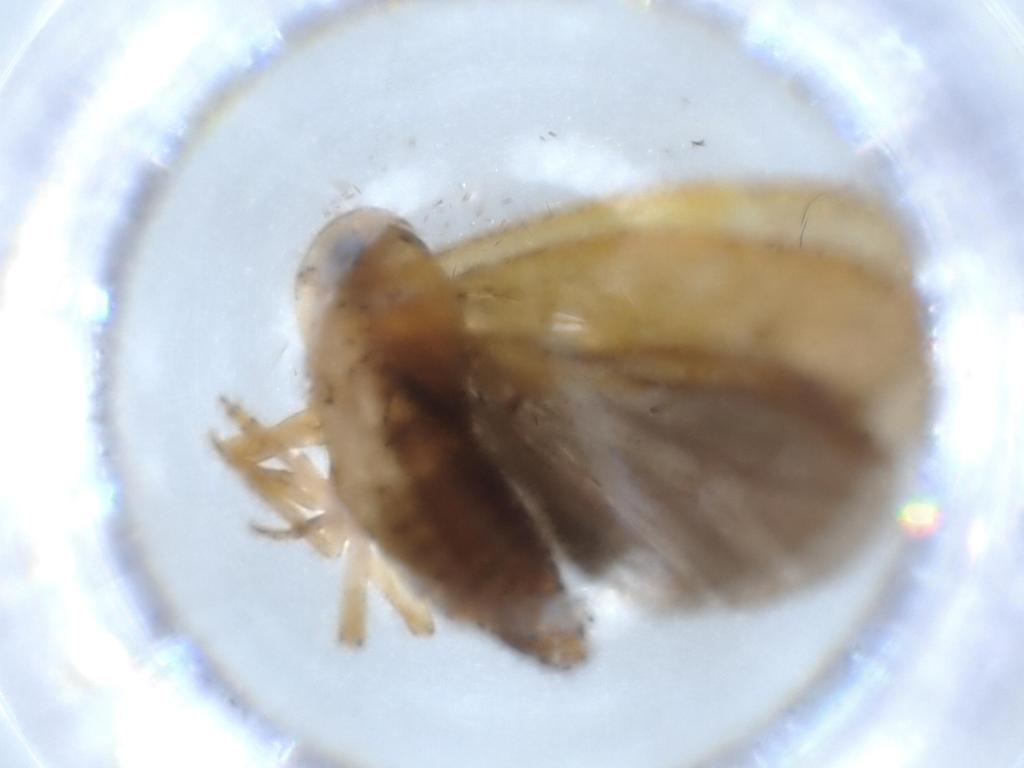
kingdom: Animalia
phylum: Arthropoda
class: Insecta
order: Hemiptera
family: Achilidae
